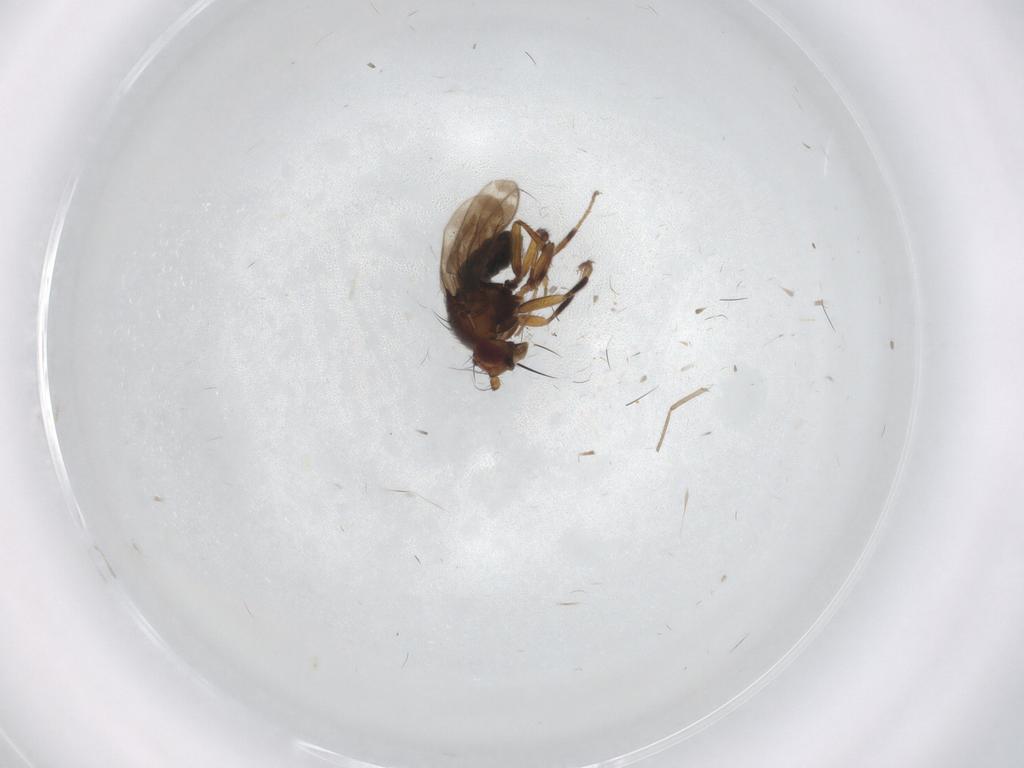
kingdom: Animalia
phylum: Arthropoda
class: Insecta
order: Diptera
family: Sphaeroceridae
